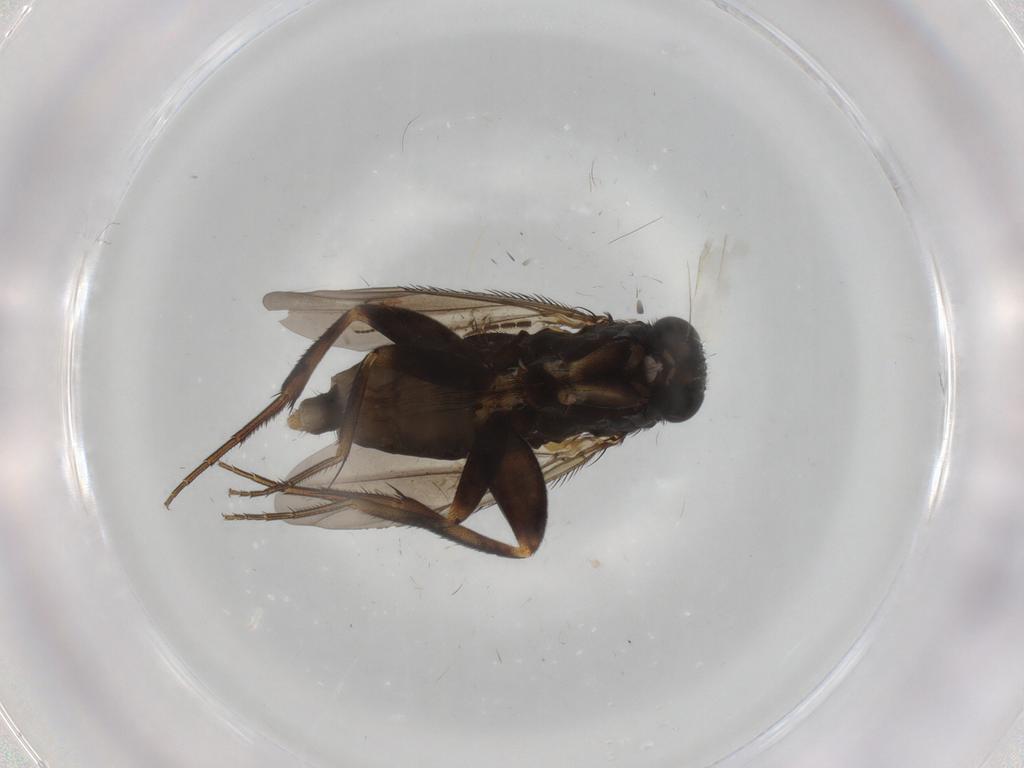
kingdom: Animalia
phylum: Arthropoda
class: Insecta
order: Diptera
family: Phoridae
